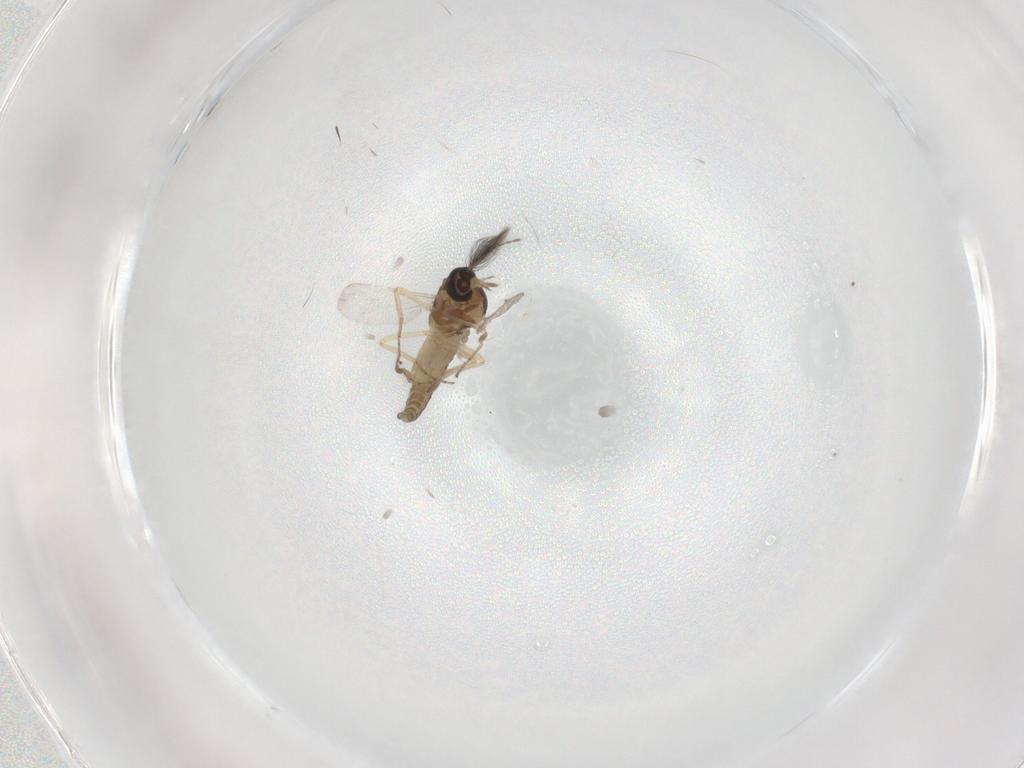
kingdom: Animalia
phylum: Arthropoda
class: Insecta
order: Diptera
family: Ceratopogonidae
